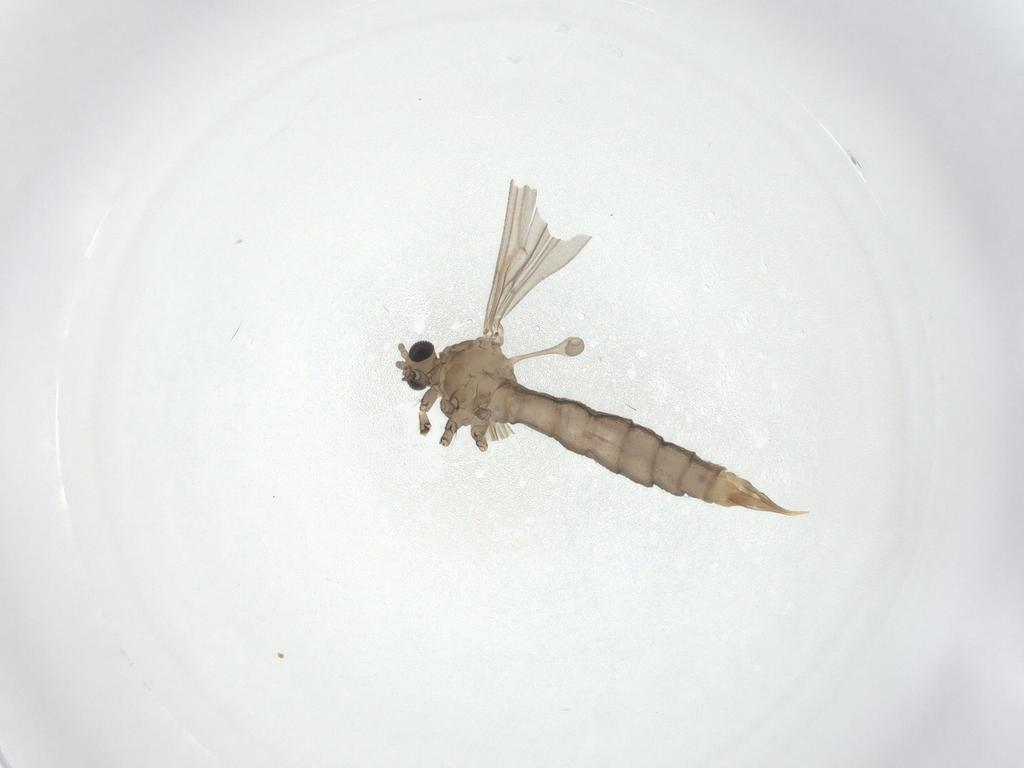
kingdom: Animalia
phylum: Arthropoda
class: Insecta
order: Diptera
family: Limoniidae
